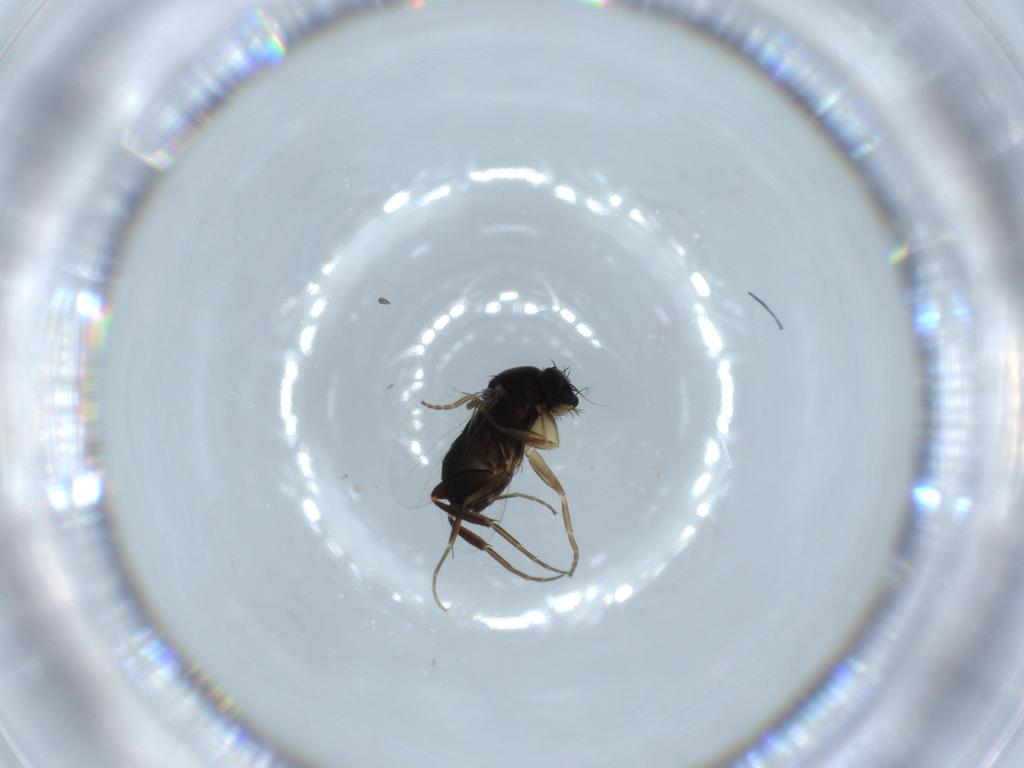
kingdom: Animalia
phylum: Arthropoda
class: Insecta
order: Diptera
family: Phoridae
